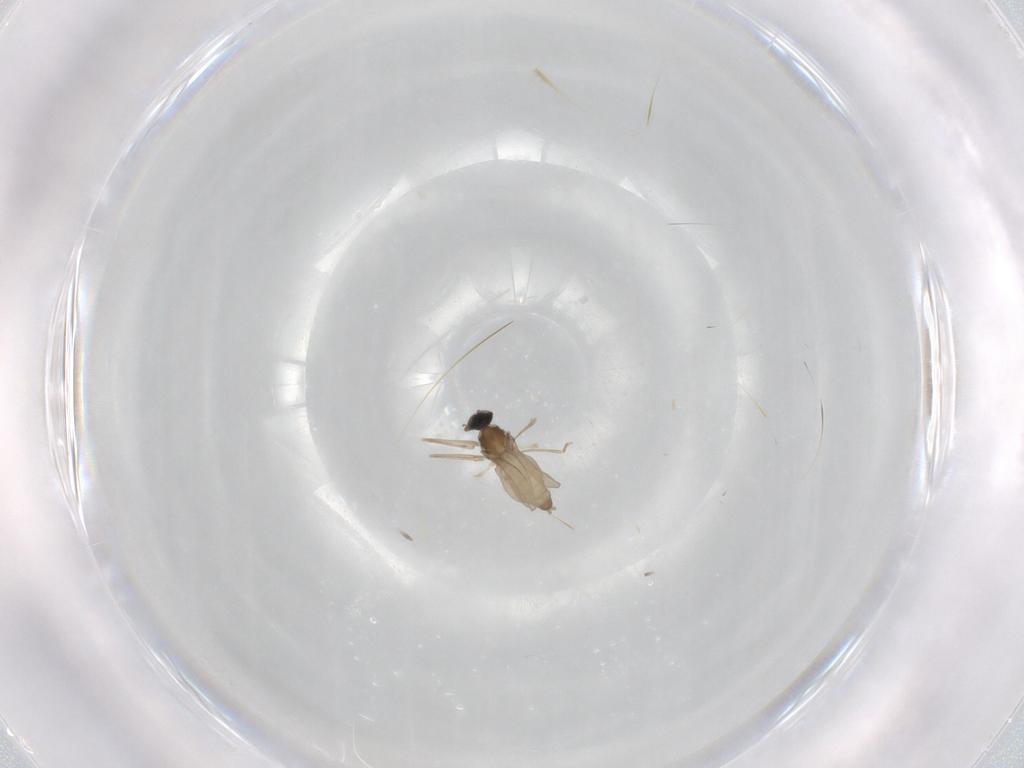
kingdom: Animalia
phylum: Arthropoda
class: Insecta
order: Diptera
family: Cecidomyiidae
